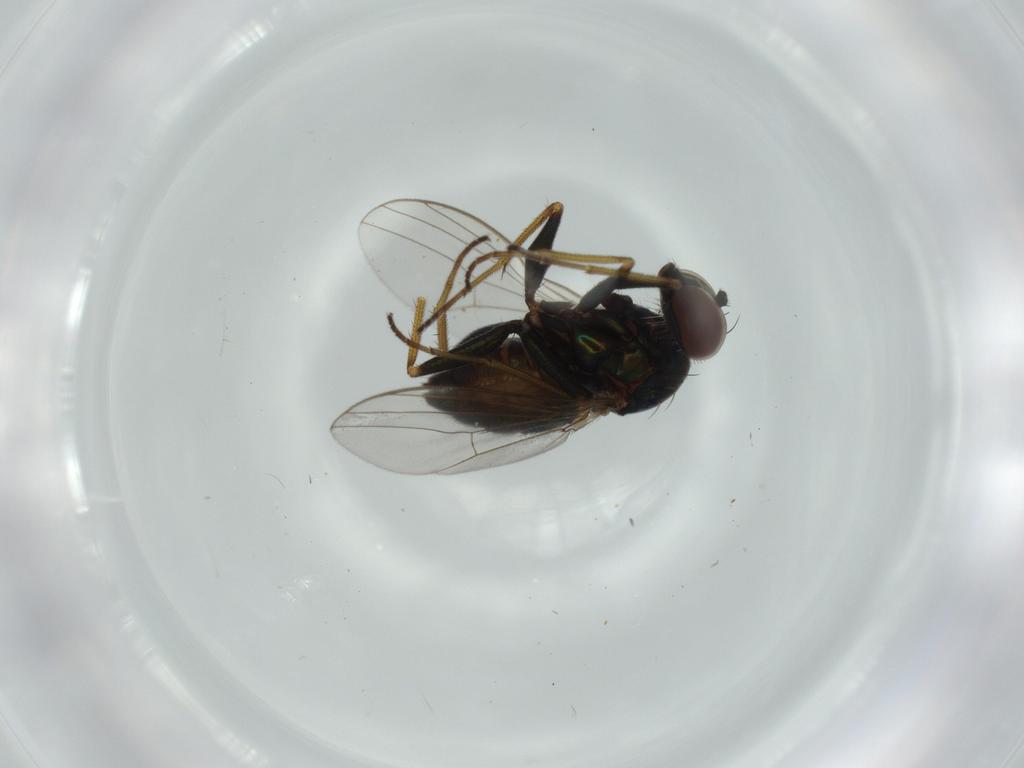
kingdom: Animalia
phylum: Arthropoda
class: Insecta
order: Diptera
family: Dolichopodidae
